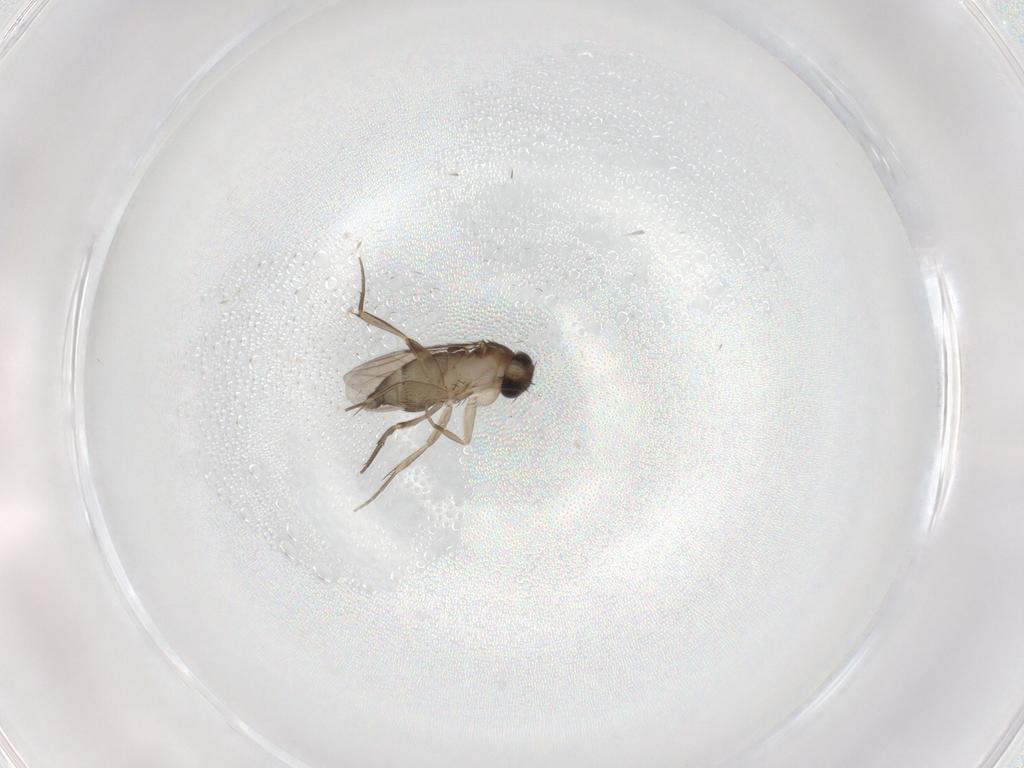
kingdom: Animalia
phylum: Arthropoda
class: Insecta
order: Diptera
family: Phoridae
